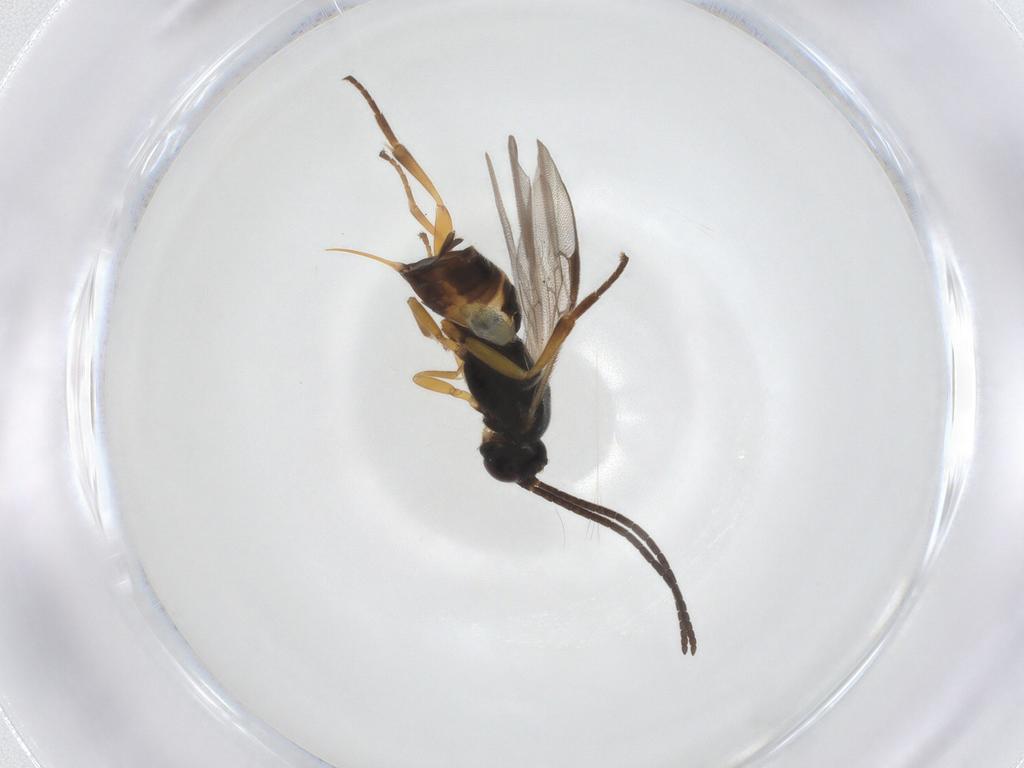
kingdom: Animalia
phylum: Arthropoda
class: Insecta
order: Hymenoptera
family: Braconidae
